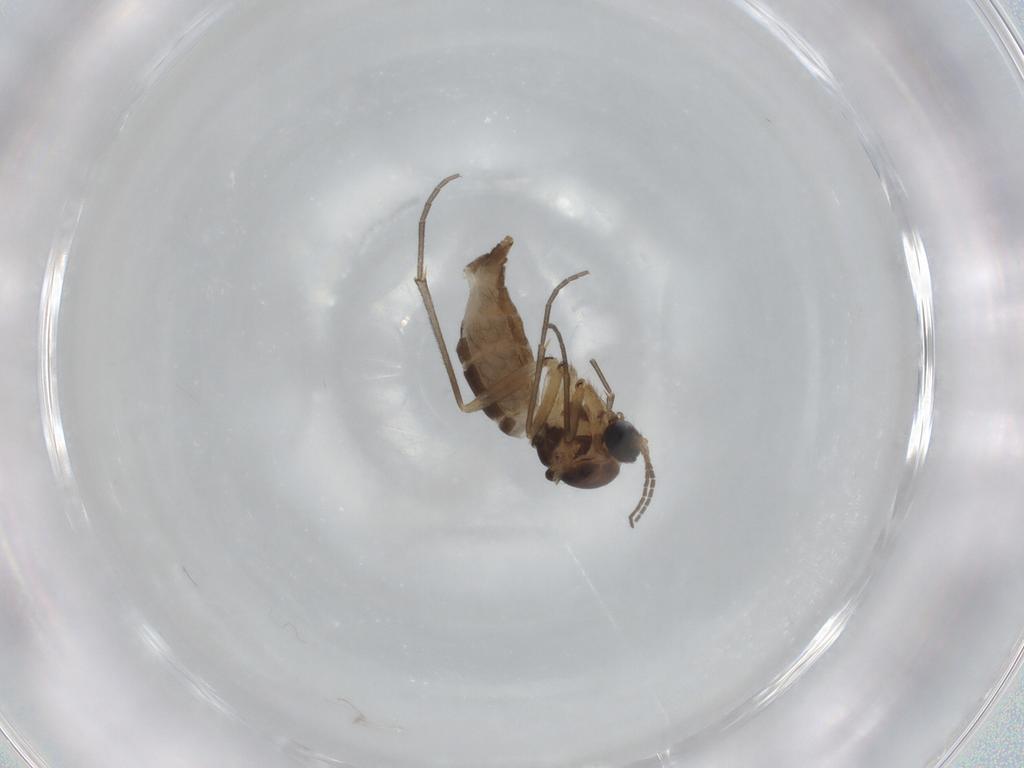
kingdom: Animalia
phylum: Arthropoda
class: Insecta
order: Diptera
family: Sciaridae
